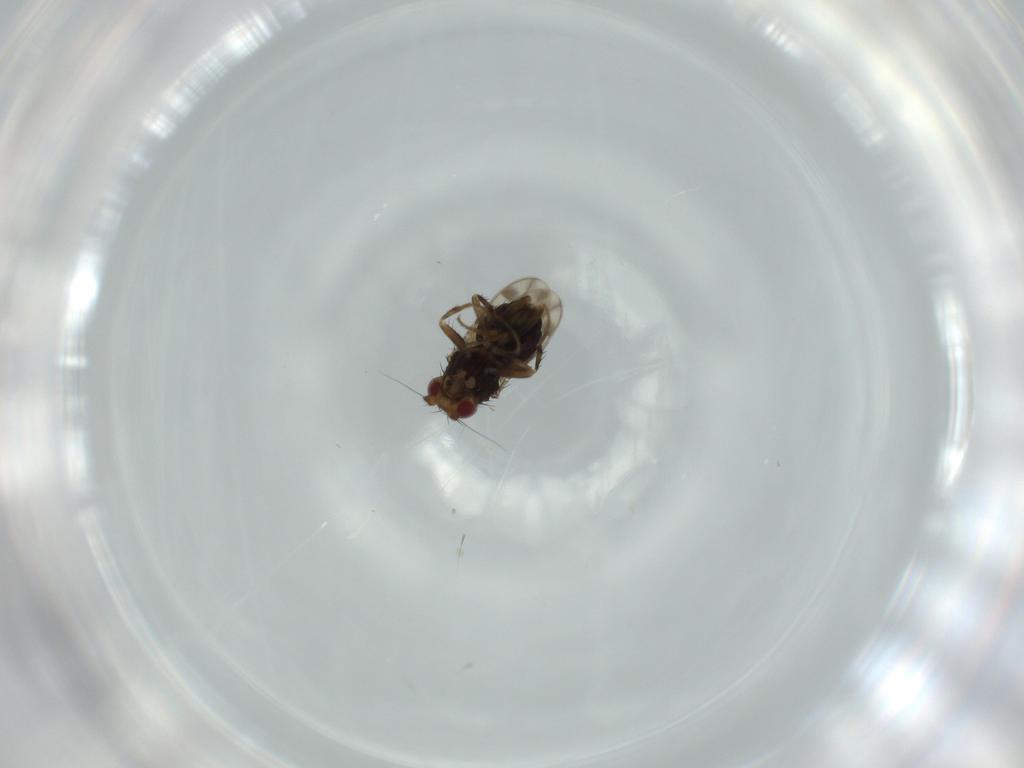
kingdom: Animalia
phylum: Arthropoda
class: Insecta
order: Diptera
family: Sphaeroceridae
